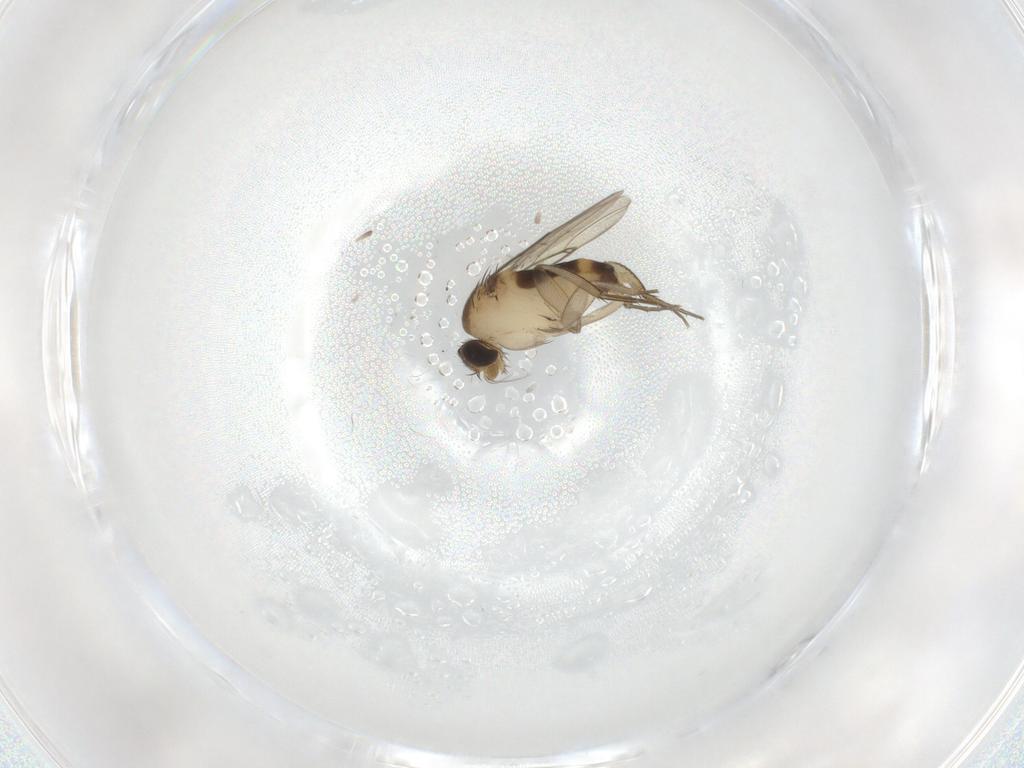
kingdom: Animalia
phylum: Arthropoda
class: Insecta
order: Diptera
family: Phoridae
